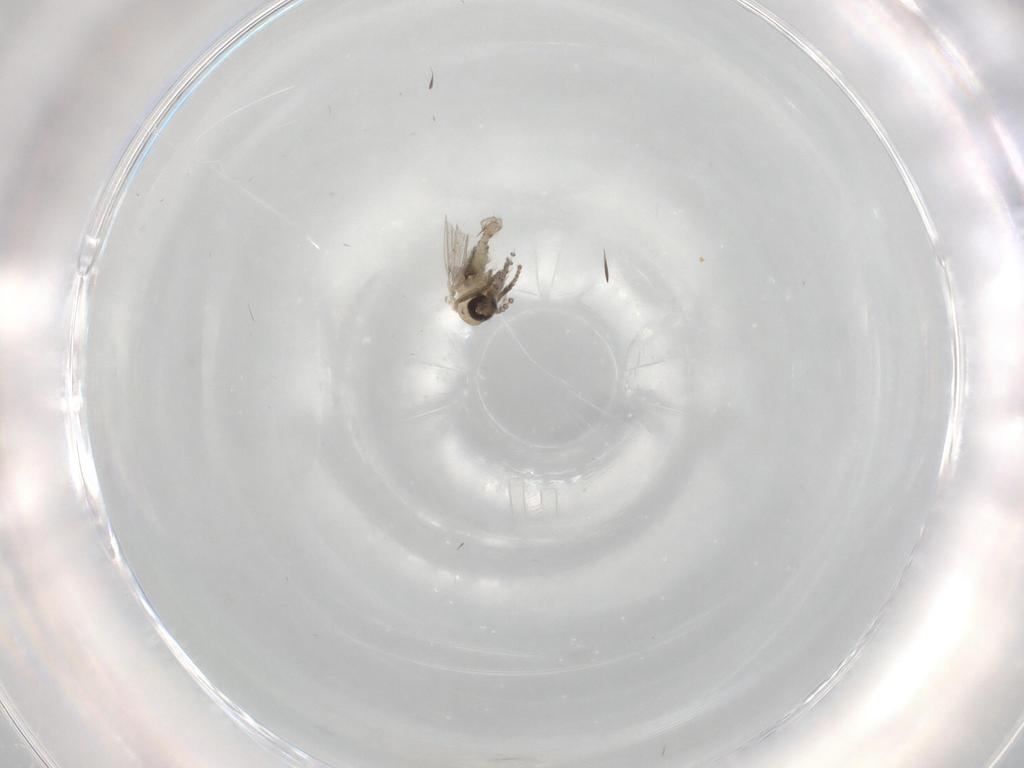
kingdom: Animalia
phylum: Arthropoda
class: Insecta
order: Diptera
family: Psychodidae
